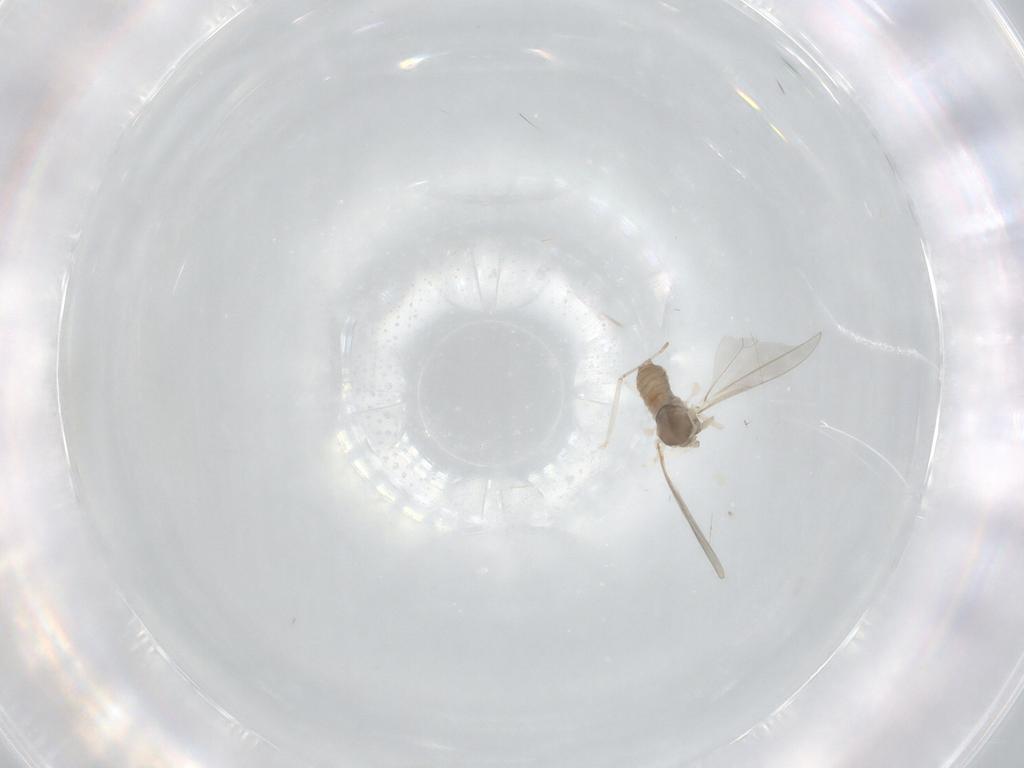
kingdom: Animalia
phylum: Arthropoda
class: Insecta
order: Diptera
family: Cecidomyiidae
